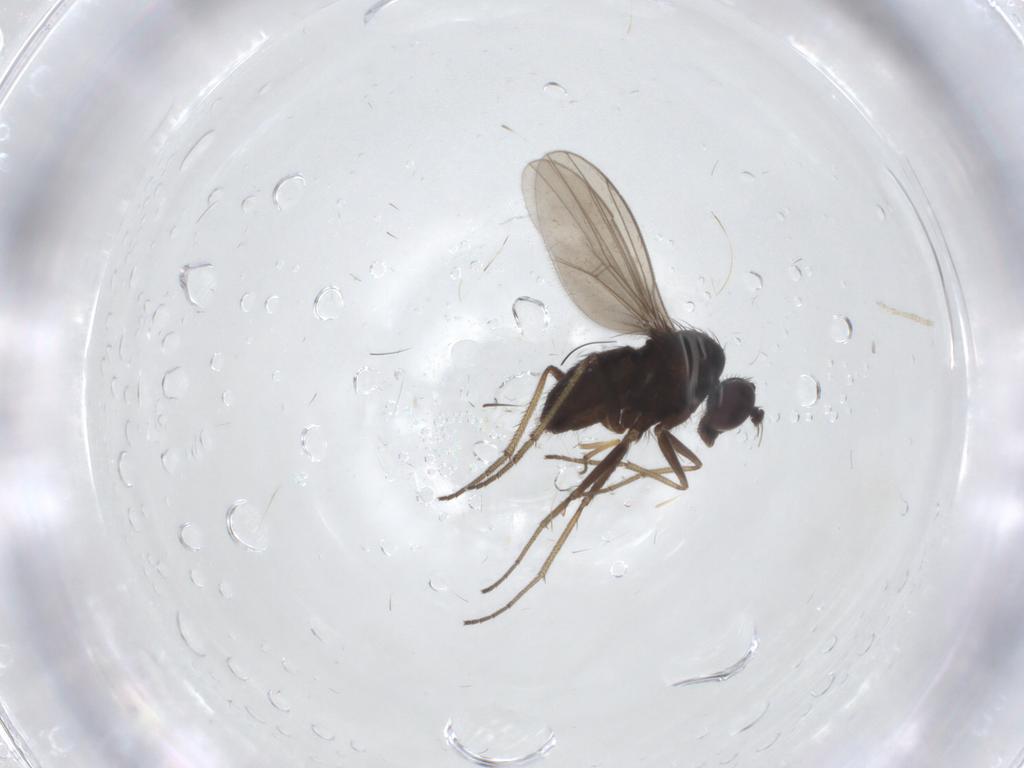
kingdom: Animalia
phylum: Arthropoda
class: Insecta
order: Diptera
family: Dolichopodidae
